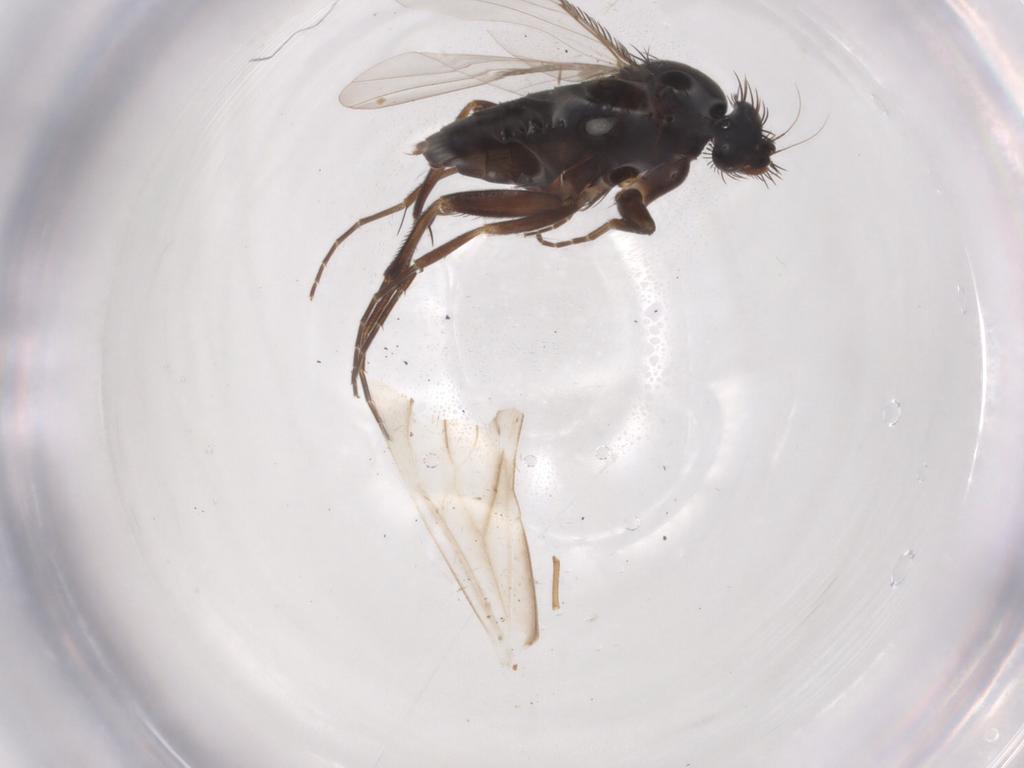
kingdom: Animalia
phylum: Arthropoda
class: Insecta
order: Diptera
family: Phoridae
